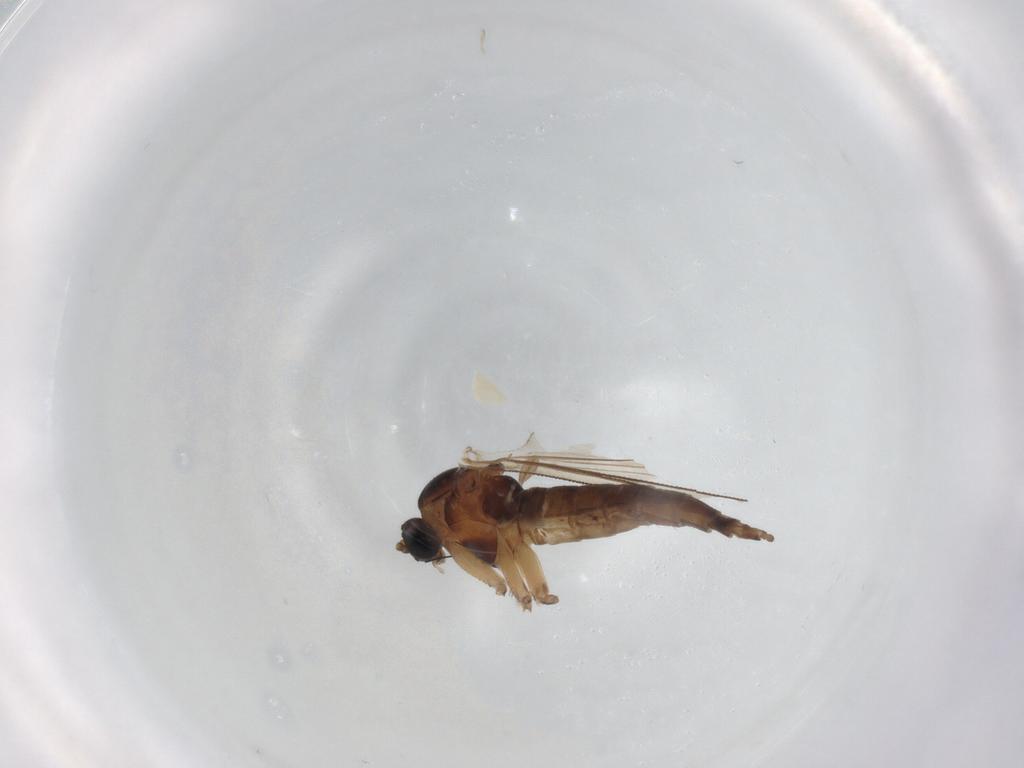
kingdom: Animalia
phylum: Arthropoda
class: Insecta
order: Diptera
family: Sciaridae
